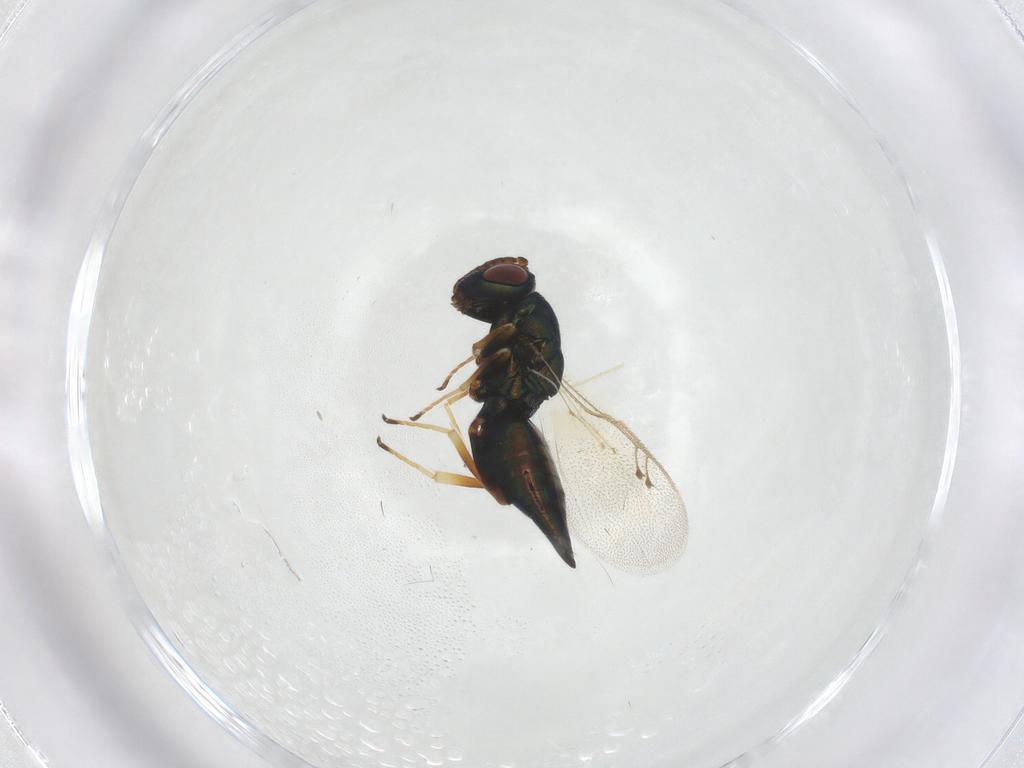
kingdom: Animalia
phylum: Arthropoda
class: Insecta
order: Hymenoptera
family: Pteromalidae
